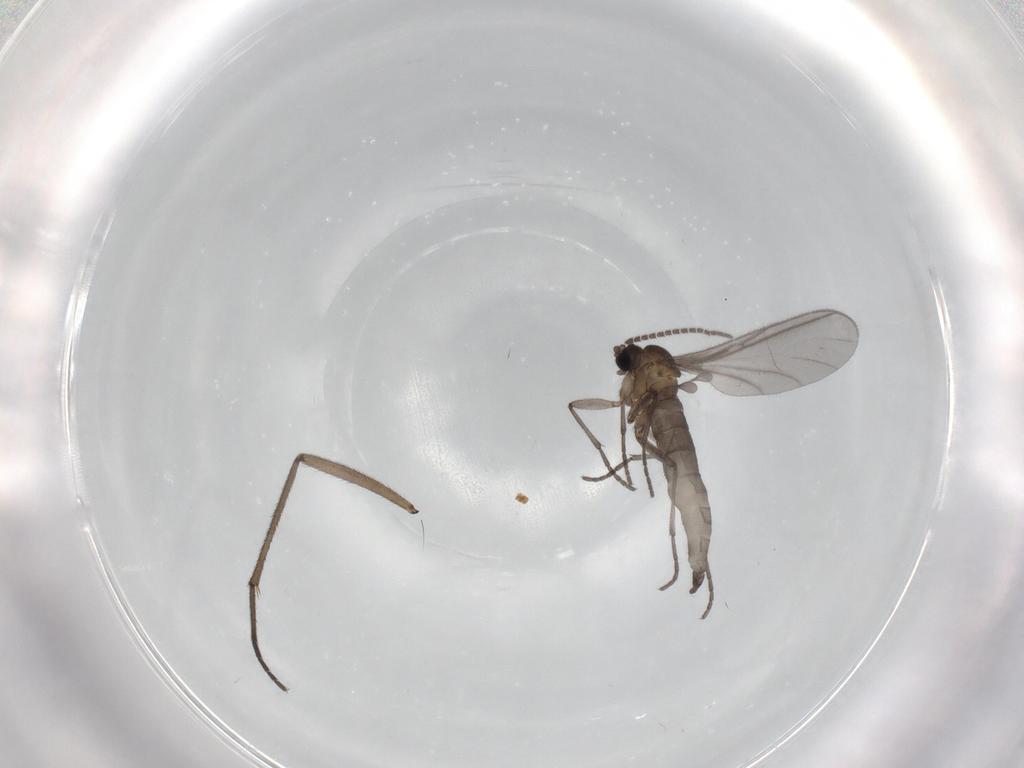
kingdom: Animalia
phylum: Arthropoda
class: Insecta
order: Diptera
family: Sciaridae
